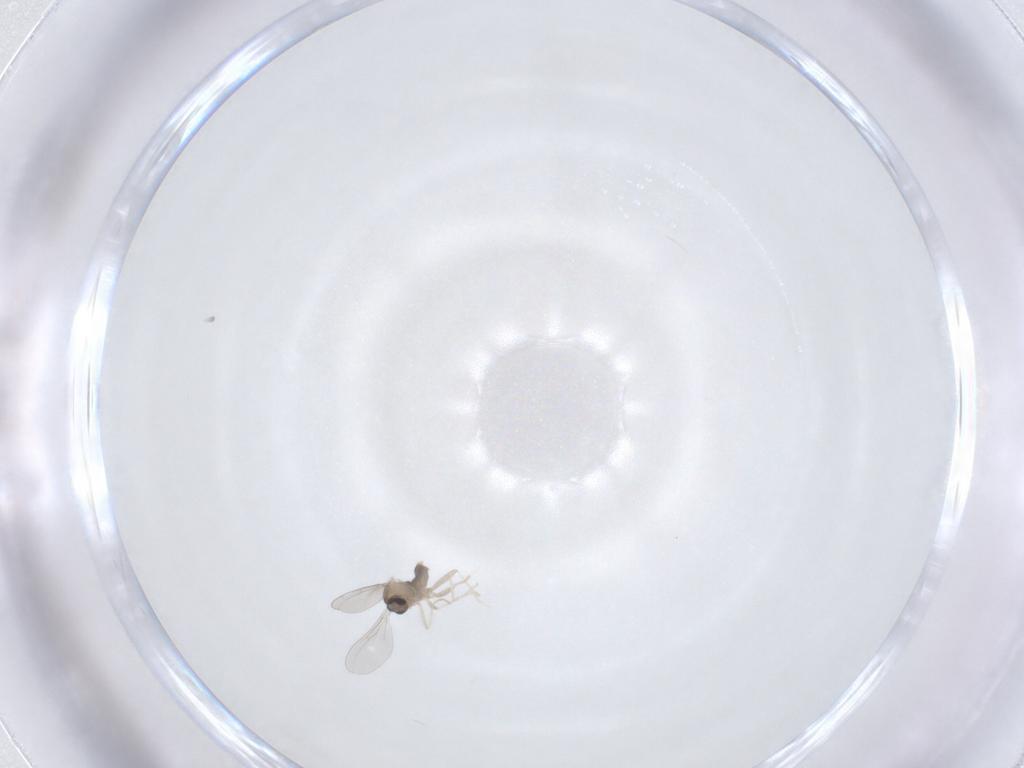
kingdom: Animalia
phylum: Arthropoda
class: Insecta
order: Diptera
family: Cecidomyiidae
